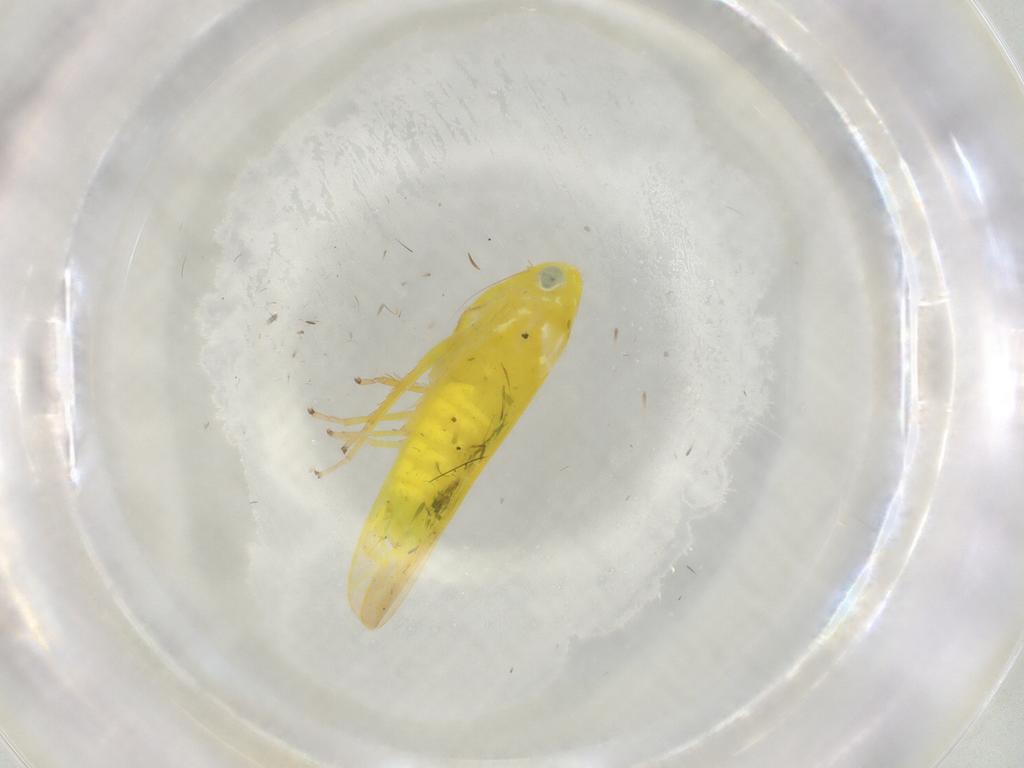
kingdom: Animalia
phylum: Arthropoda
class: Insecta
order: Hemiptera
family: Cicadellidae
